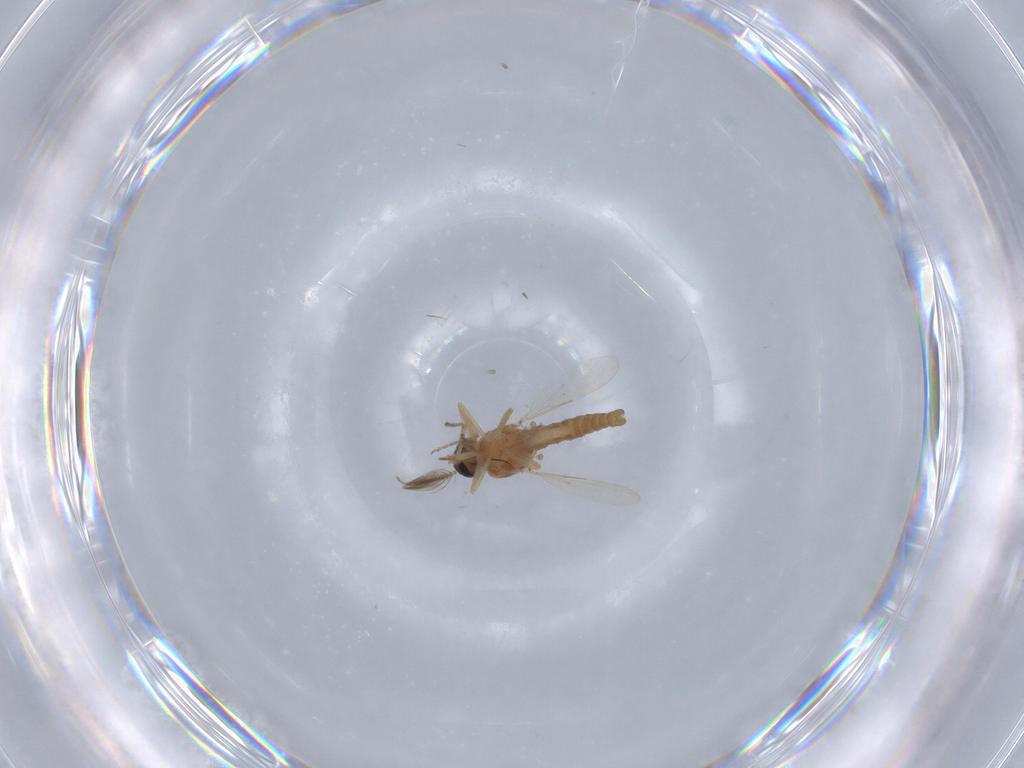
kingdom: Animalia
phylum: Arthropoda
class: Insecta
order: Diptera
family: Ceratopogonidae
